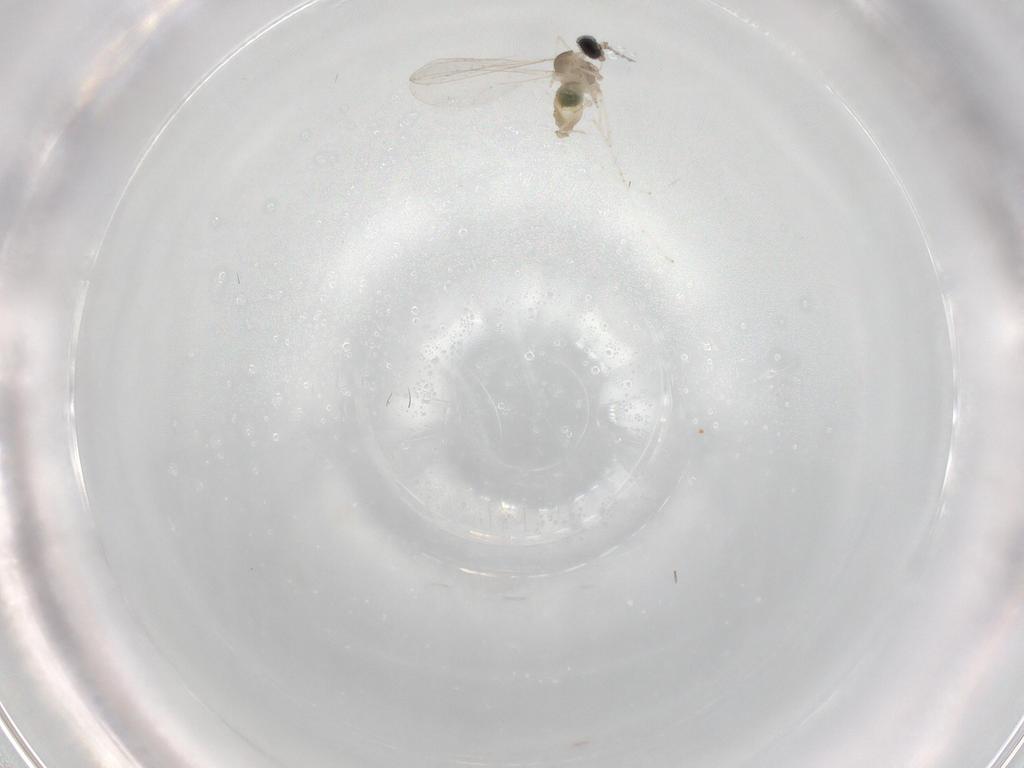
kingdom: Animalia
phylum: Arthropoda
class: Insecta
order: Diptera
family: Cecidomyiidae
